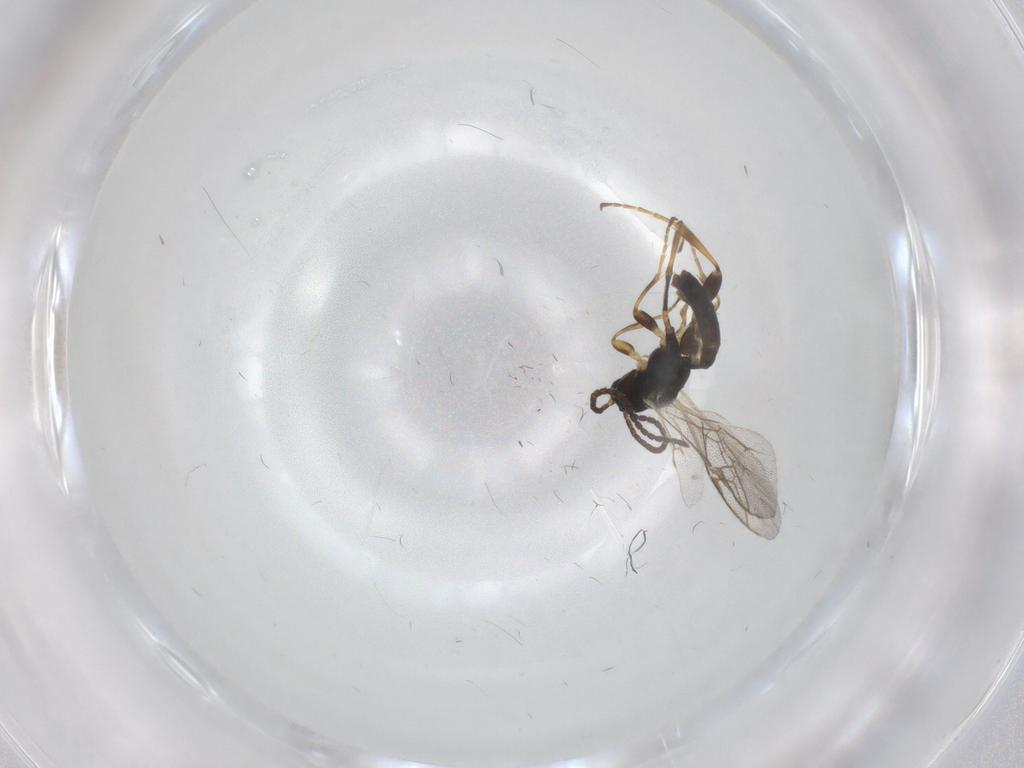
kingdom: Animalia
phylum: Arthropoda
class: Insecta
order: Hymenoptera
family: Ichneumonidae
